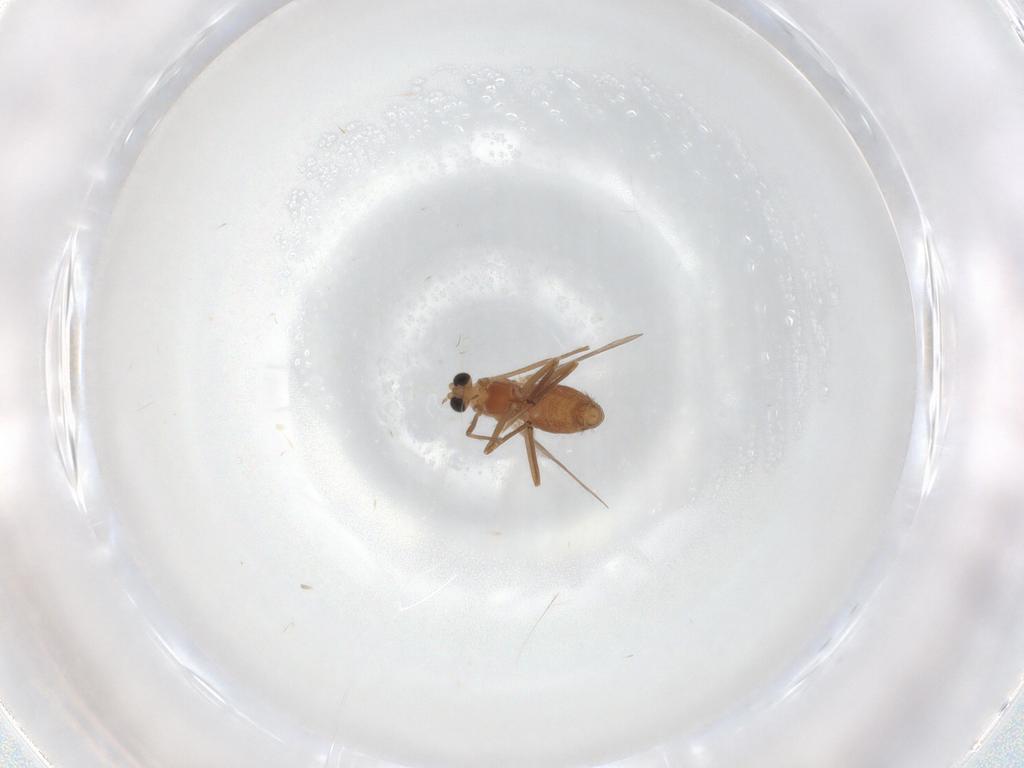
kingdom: Animalia
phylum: Arthropoda
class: Insecta
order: Diptera
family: Chironomidae
